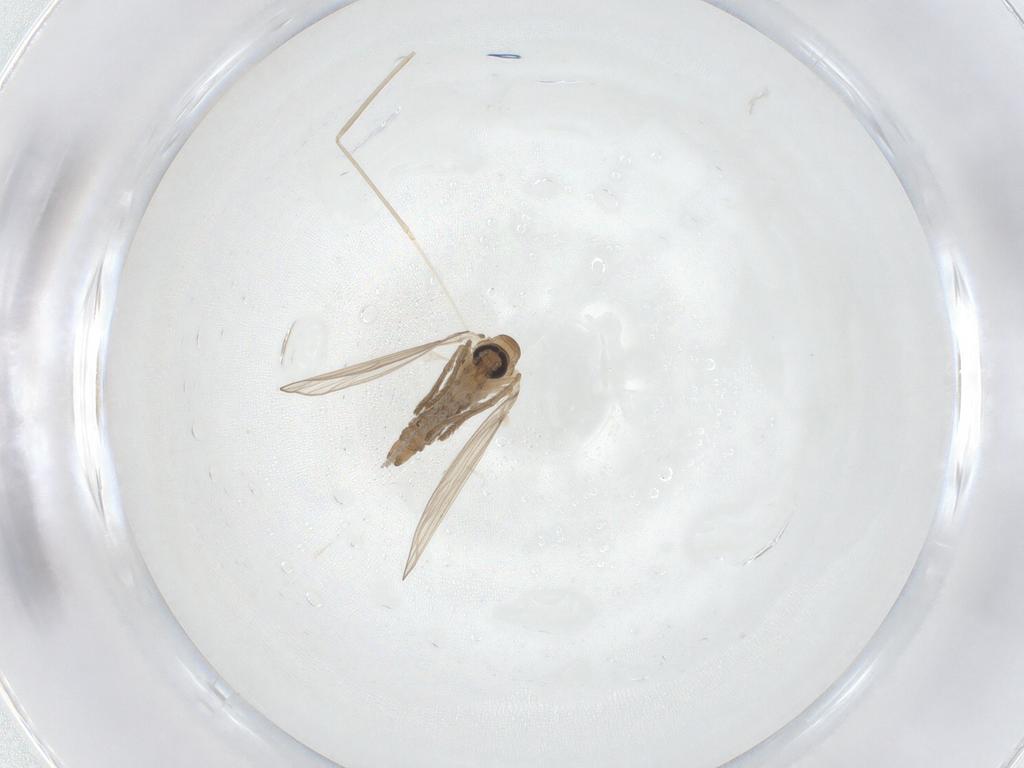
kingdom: Animalia
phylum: Arthropoda
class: Insecta
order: Diptera
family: Psychodidae
